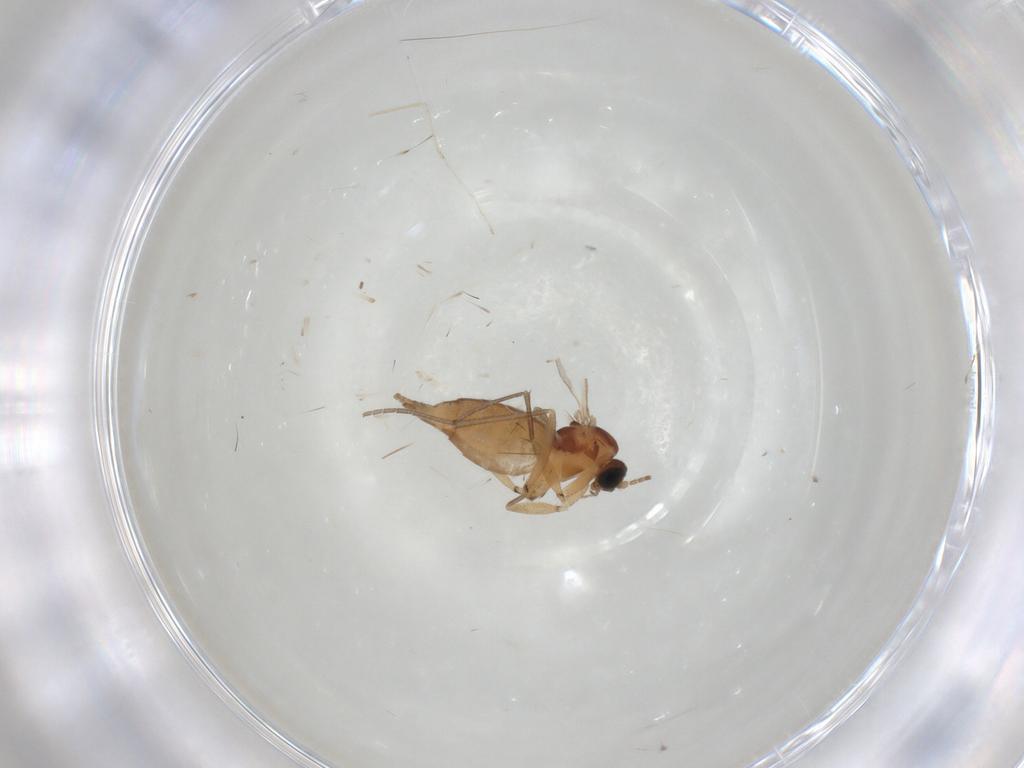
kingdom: Animalia
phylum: Arthropoda
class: Insecta
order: Diptera
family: Sciaridae
